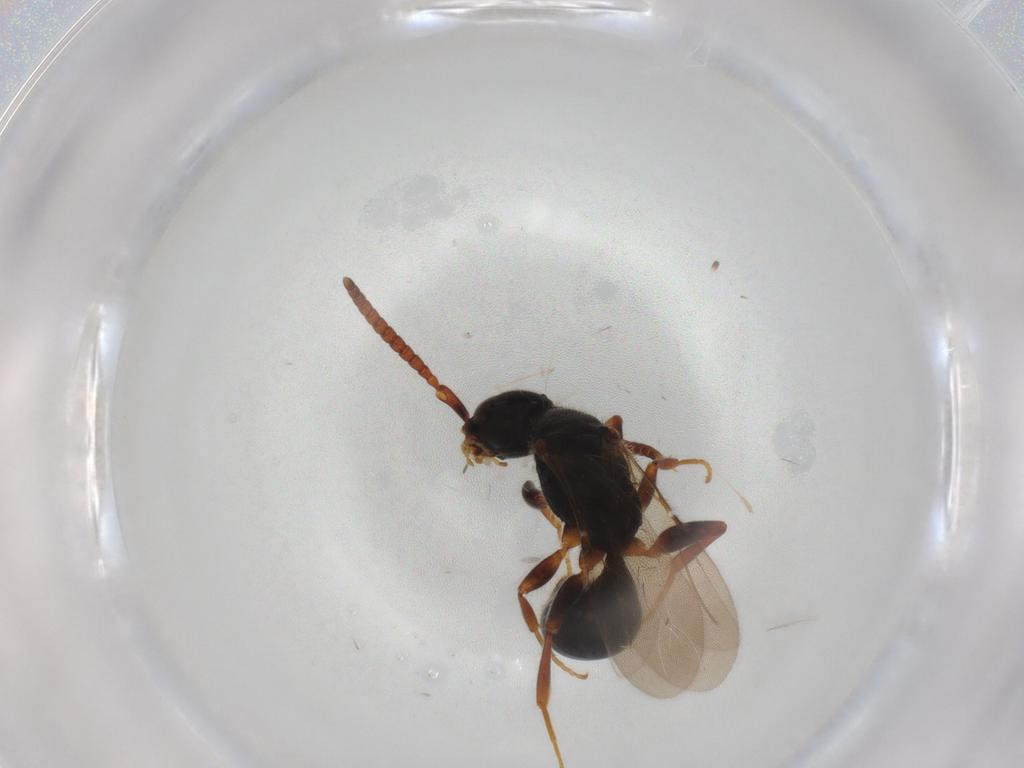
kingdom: Animalia
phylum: Arthropoda
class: Insecta
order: Hymenoptera
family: Bethylidae
